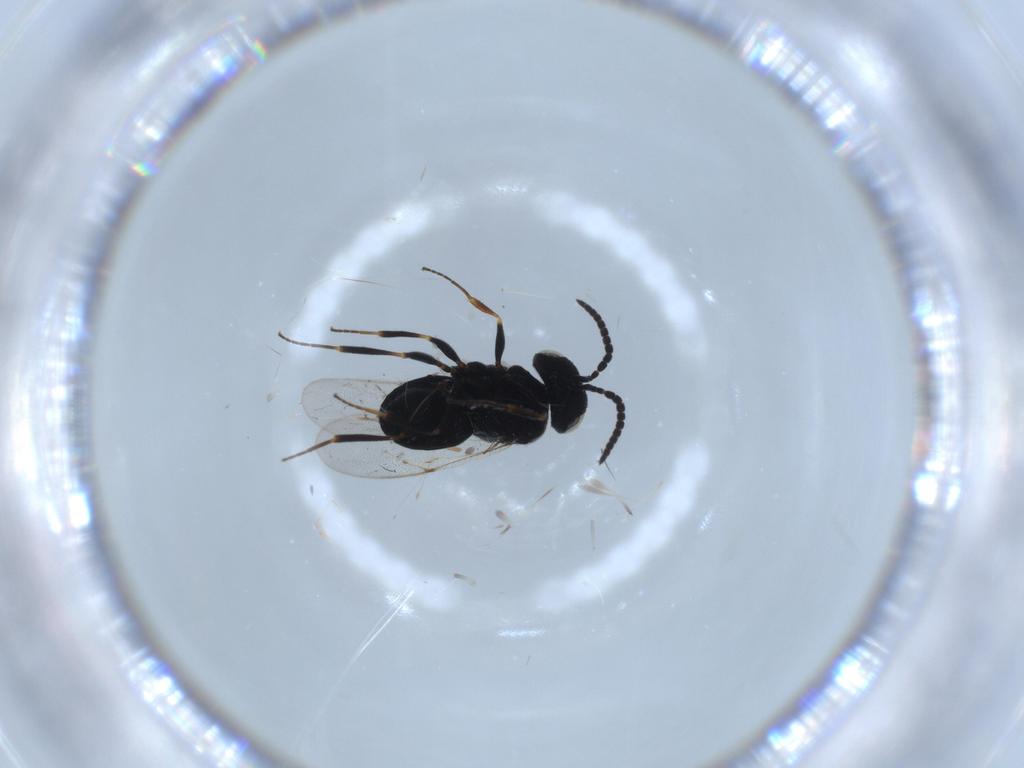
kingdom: Animalia
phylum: Arthropoda
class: Insecta
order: Hymenoptera
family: Scelionidae
